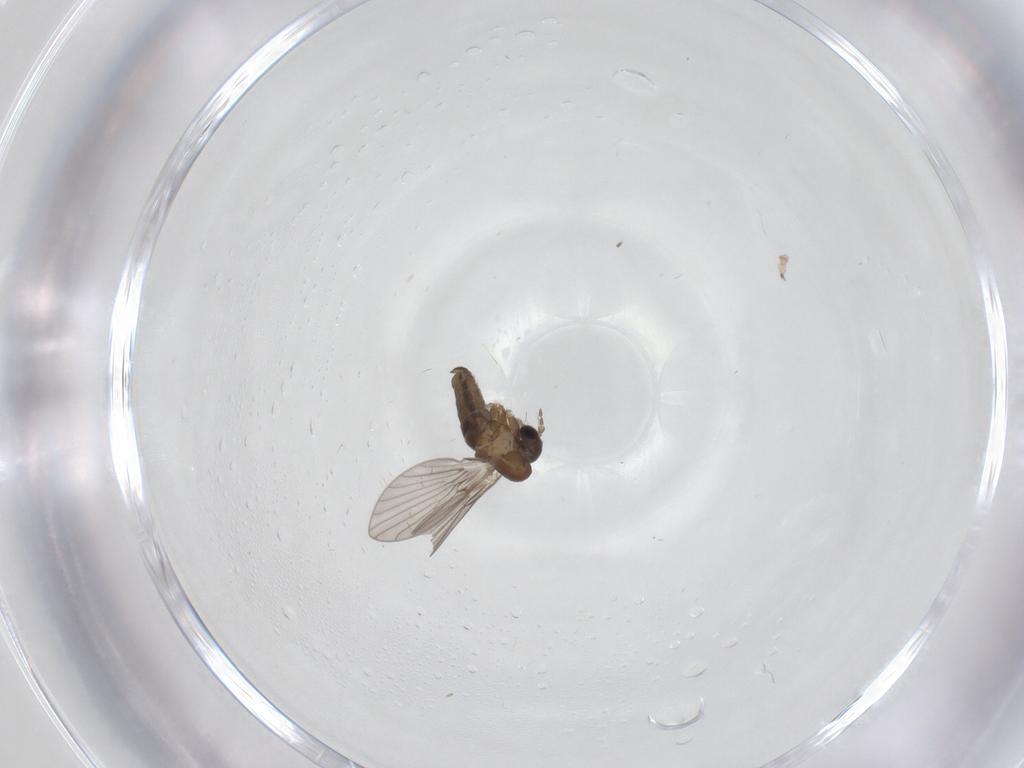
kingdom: Animalia
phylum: Arthropoda
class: Insecta
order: Diptera
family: Psychodidae
